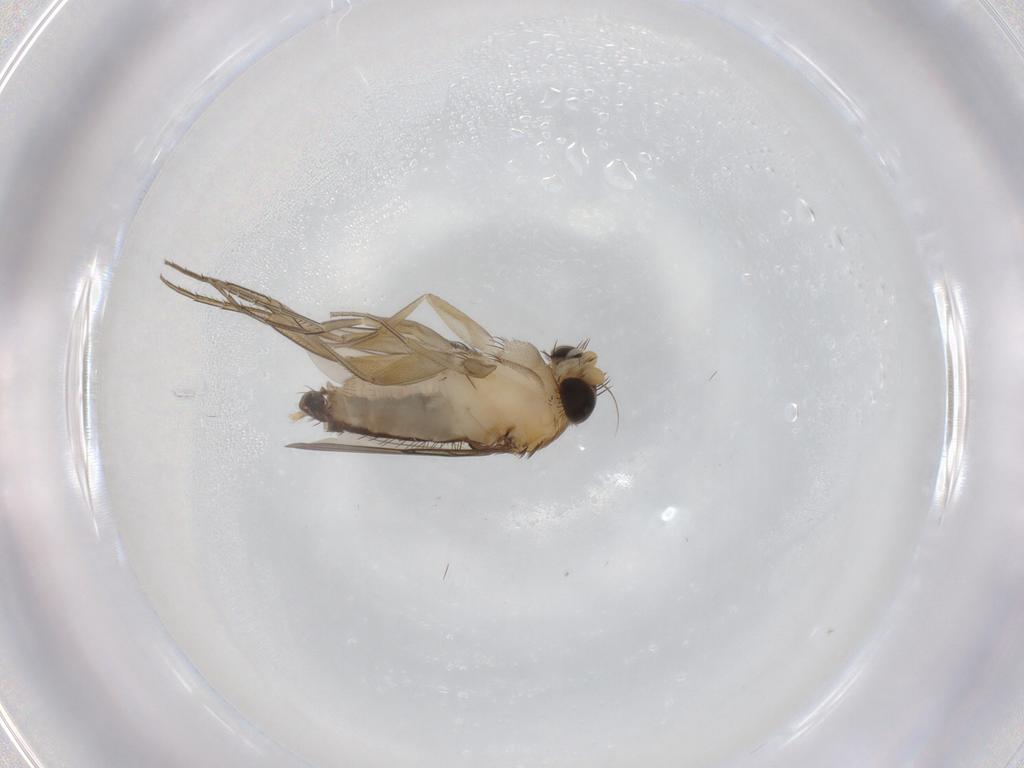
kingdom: Animalia
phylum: Arthropoda
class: Insecta
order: Diptera
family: Phoridae
